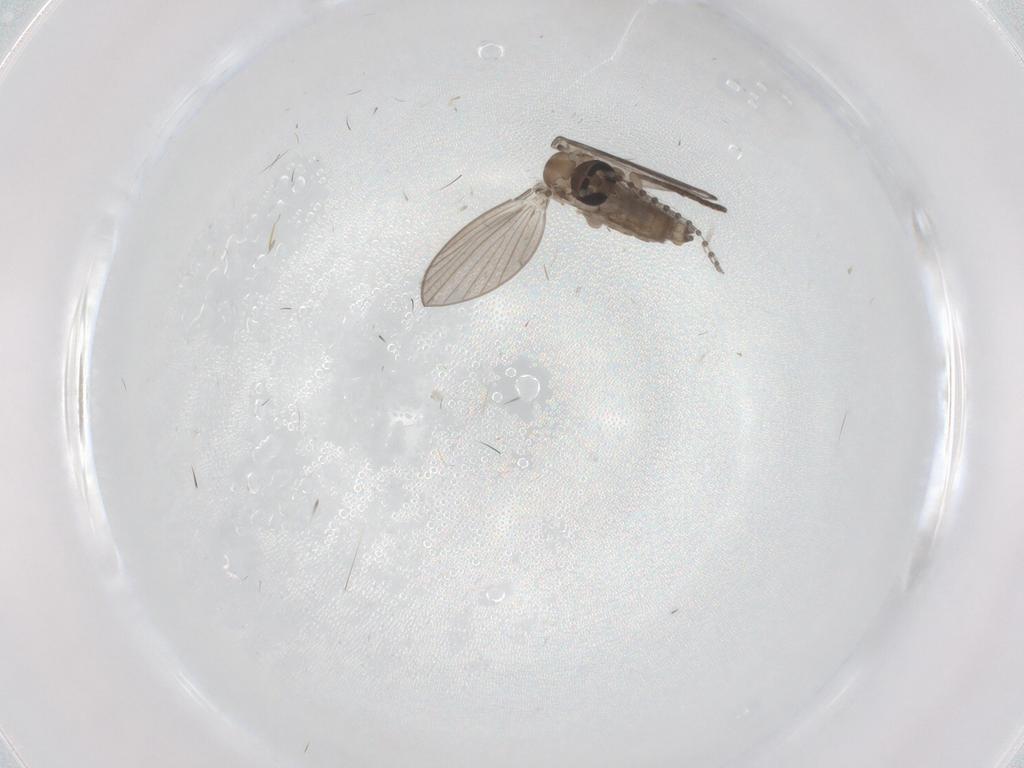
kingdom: Animalia
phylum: Arthropoda
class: Insecta
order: Diptera
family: Psychodidae
